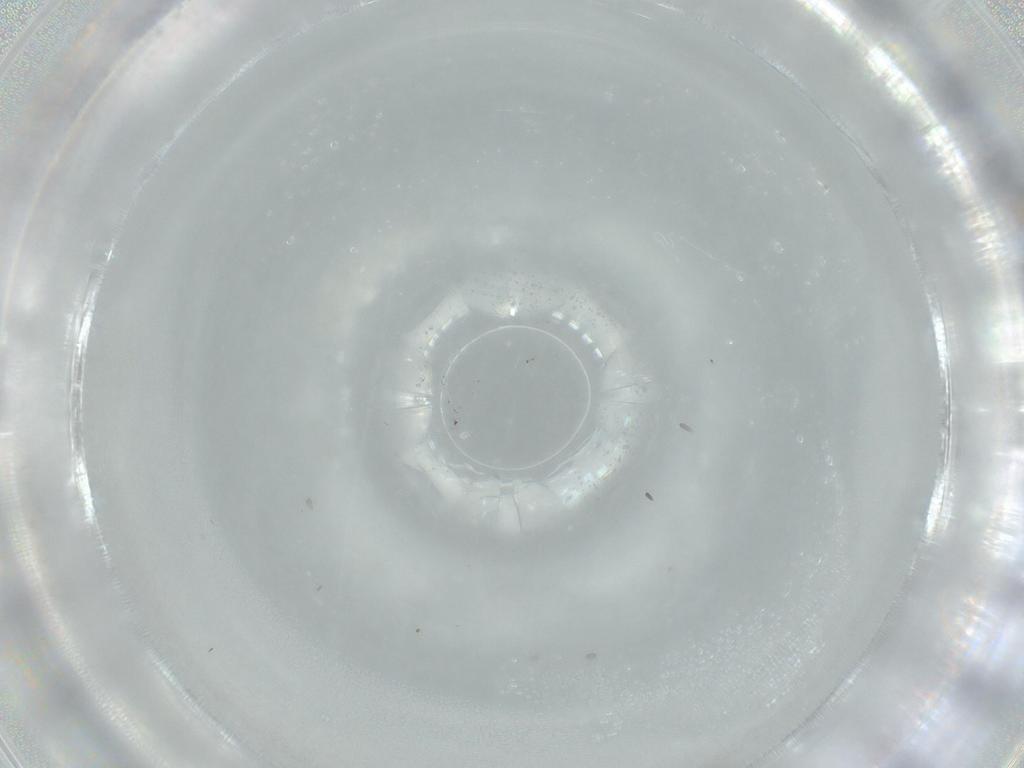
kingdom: Animalia
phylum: Arthropoda
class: Insecta
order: Diptera
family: Cecidomyiidae
